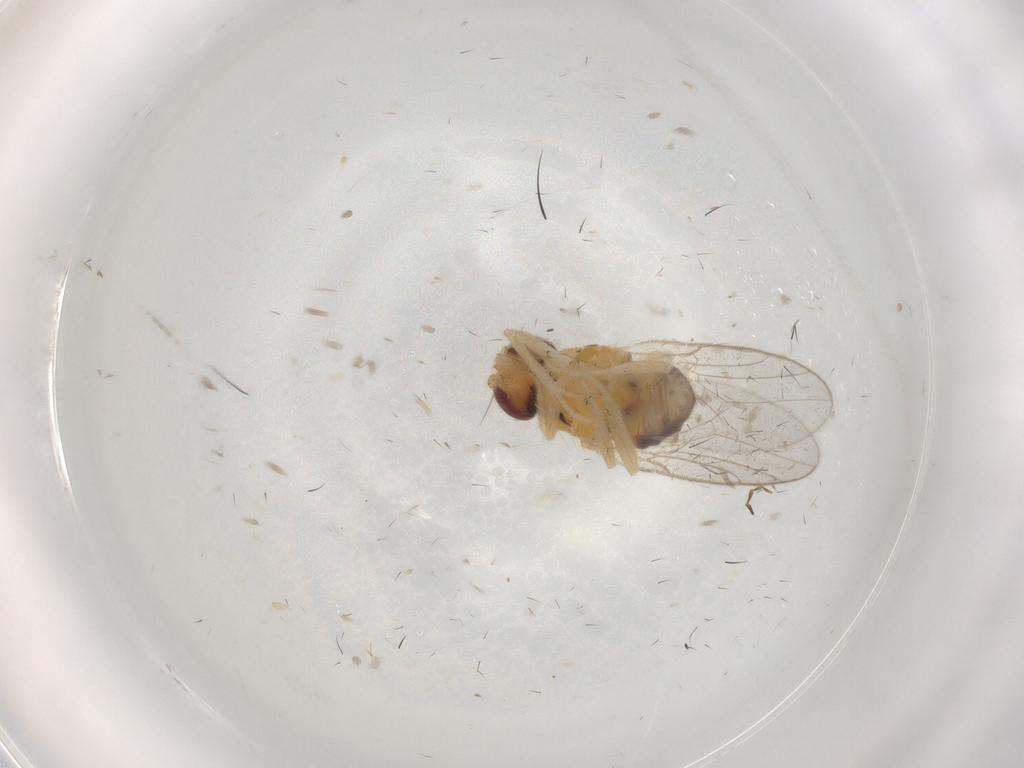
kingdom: Animalia
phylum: Arthropoda
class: Insecta
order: Diptera
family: Chloropidae
